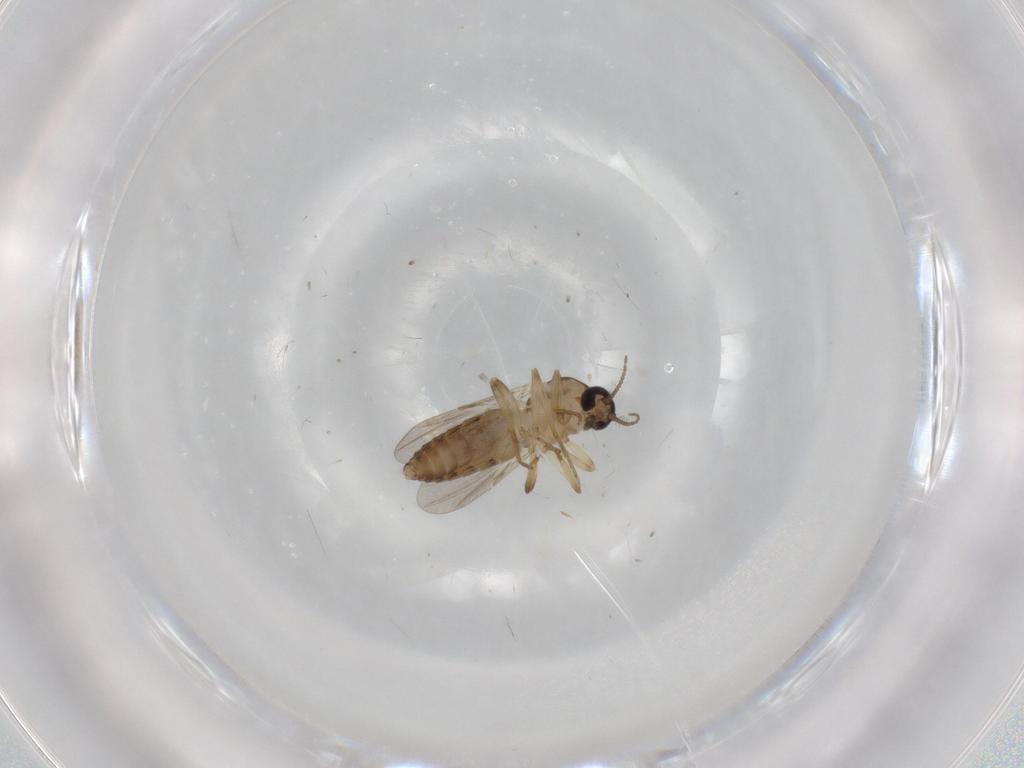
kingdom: Animalia
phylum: Arthropoda
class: Insecta
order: Diptera
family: Ceratopogonidae
